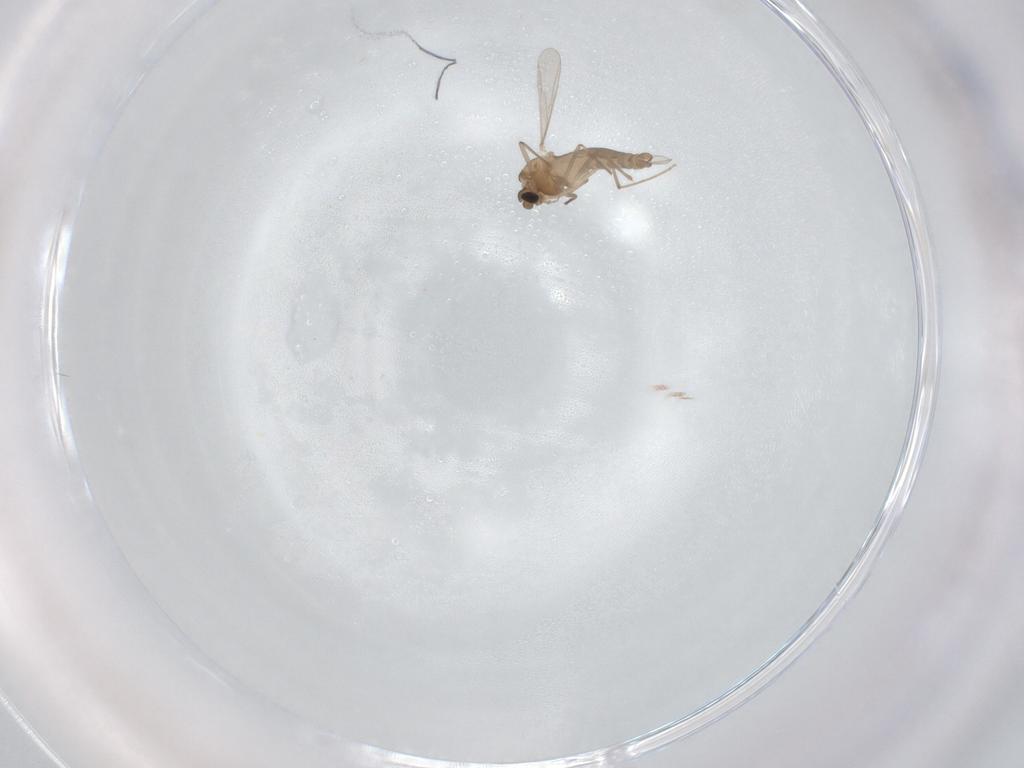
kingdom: Animalia
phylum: Arthropoda
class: Insecta
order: Diptera
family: Chironomidae
